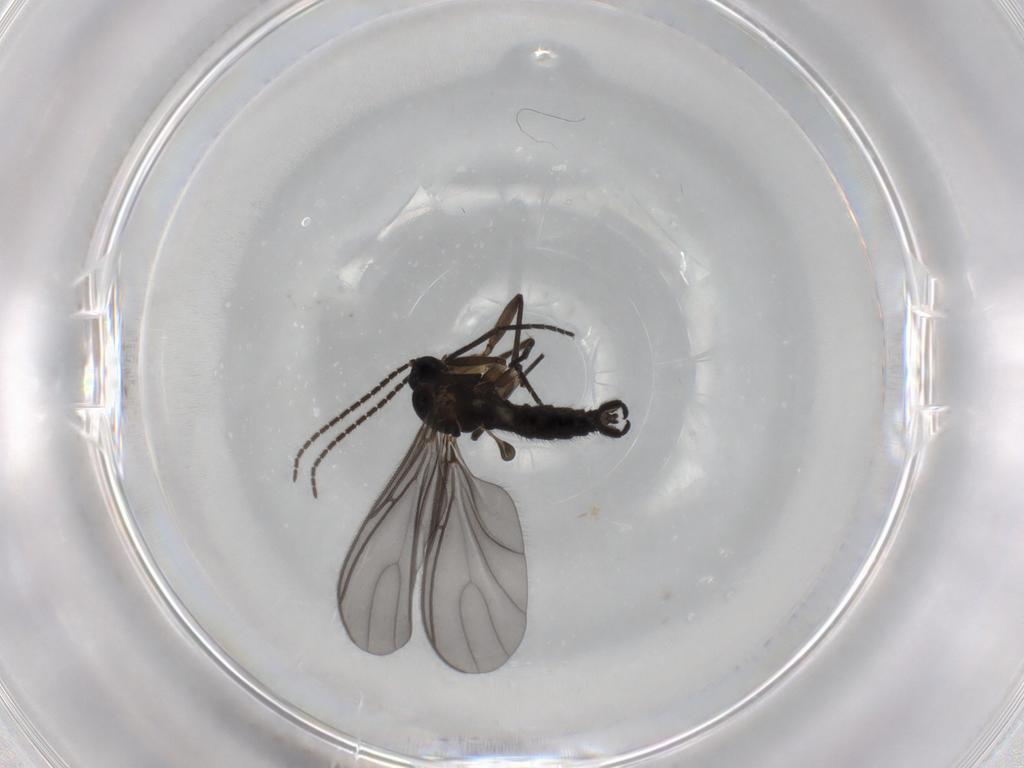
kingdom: Animalia
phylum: Arthropoda
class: Insecta
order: Diptera
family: Sciaridae
